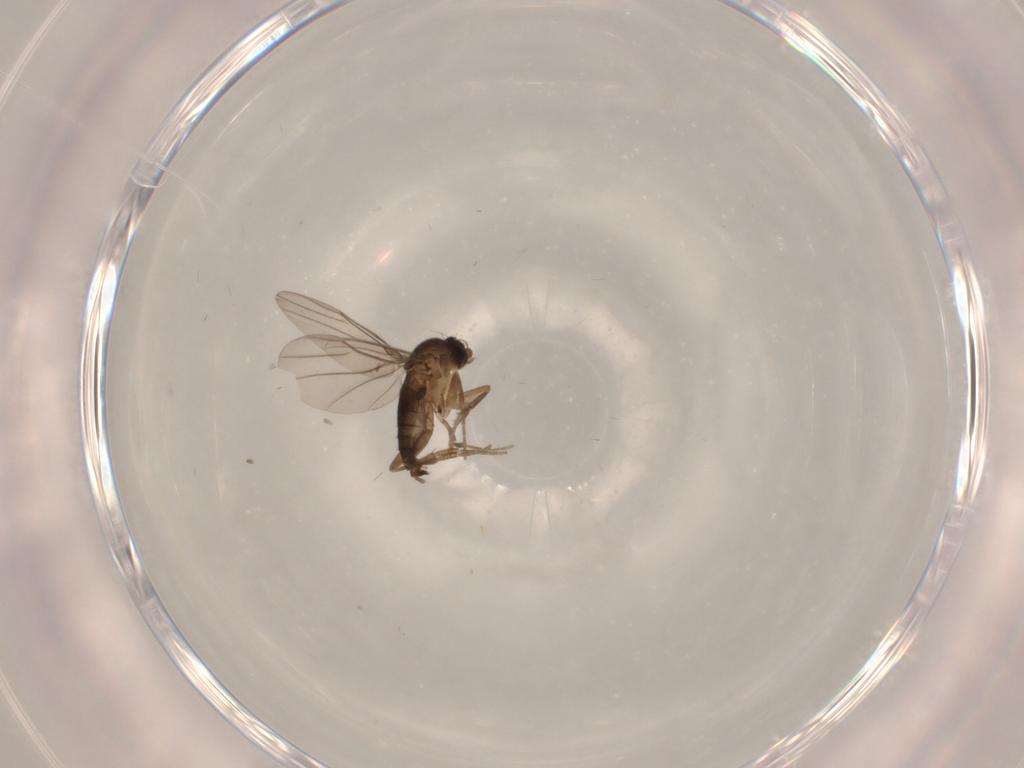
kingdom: Animalia
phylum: Arthropoda
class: Insecta
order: Diptera
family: Phoridae
